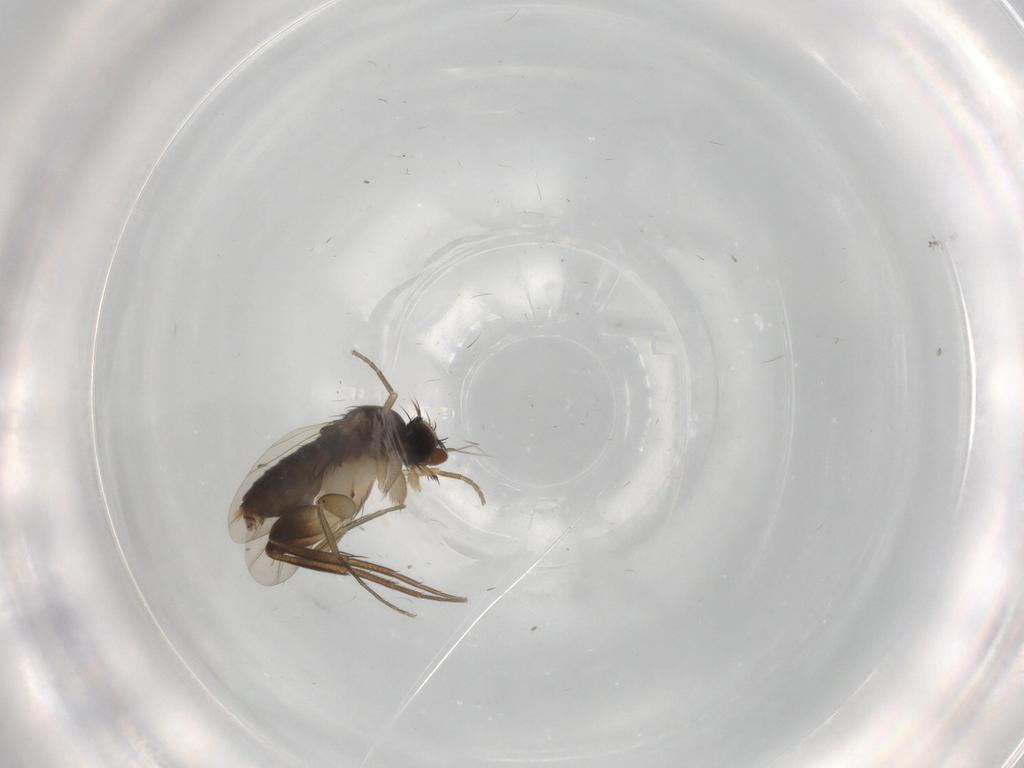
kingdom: Animalia
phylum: Arthropoda
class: Insecta
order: Diptera
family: Phoridae
